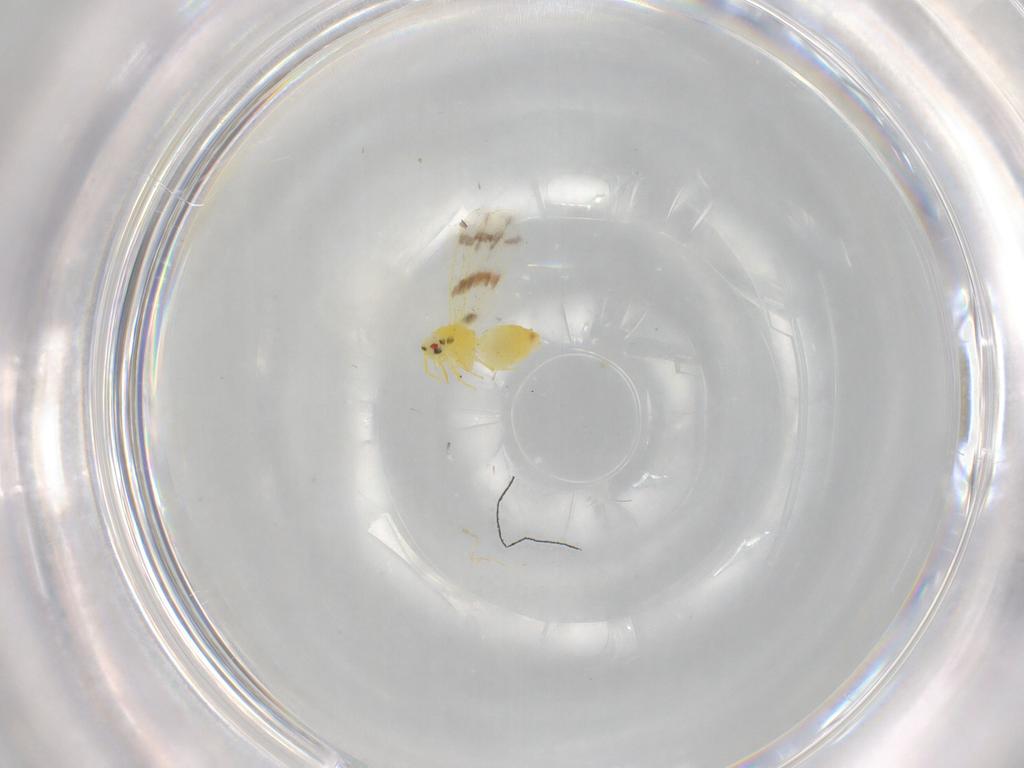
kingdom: Animalia
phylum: Arthropoda
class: Insecta
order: Hemiptera
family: Aleyrodidae
